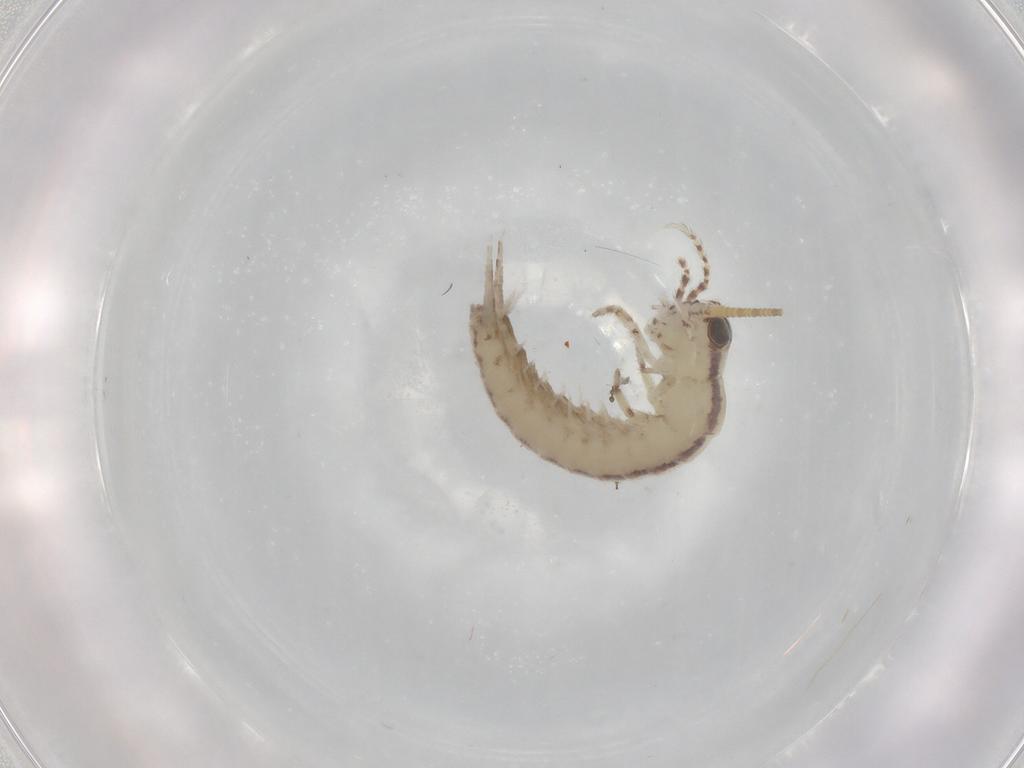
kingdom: Animalia
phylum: Arthropoda
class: Insecta
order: Archaeognatha
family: Machilidae
